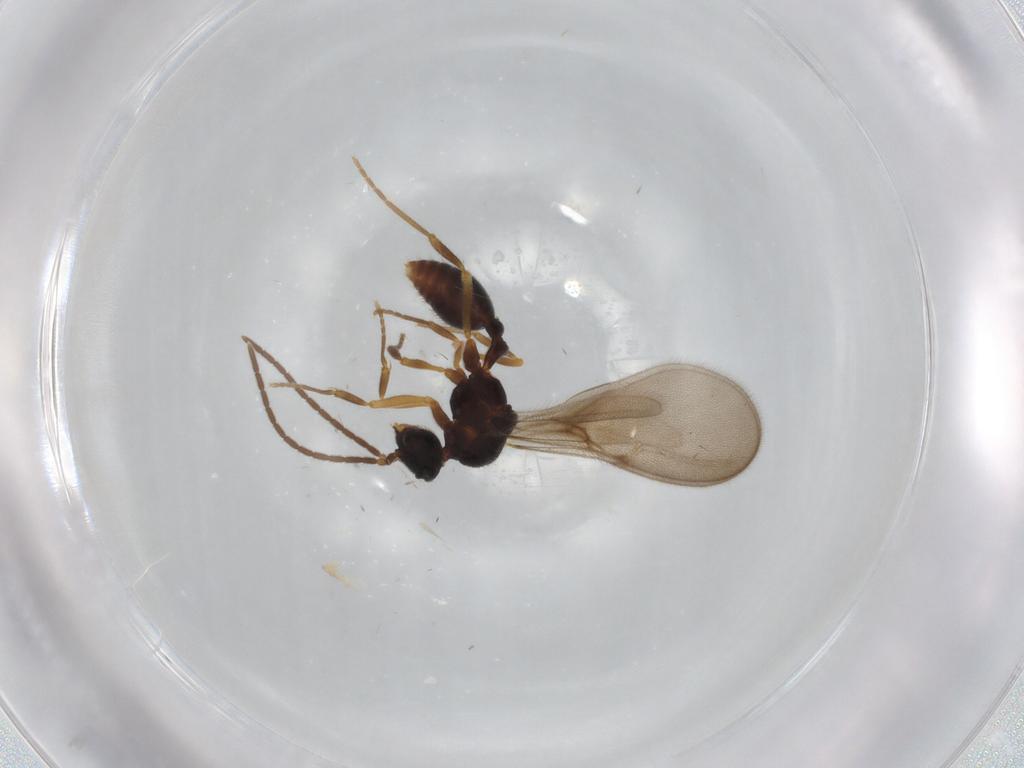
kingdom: Animalia
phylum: Arthropoda
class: Insecta
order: Hymenoptera
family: Formicidae
